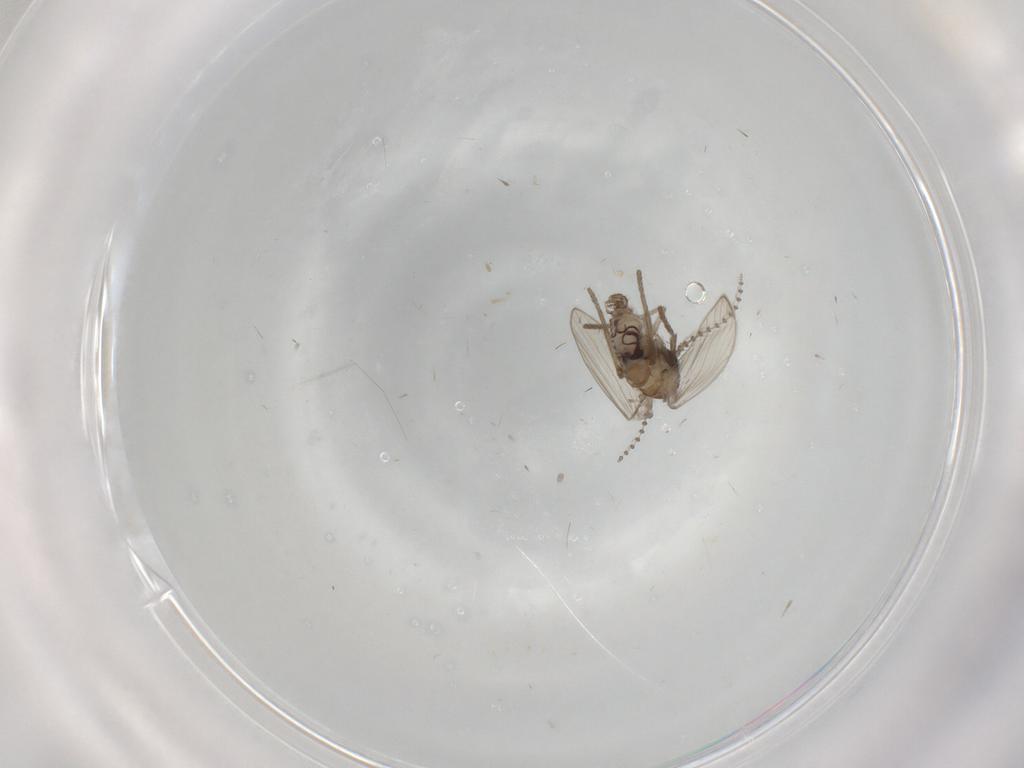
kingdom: Animalia
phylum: Arthropoda
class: Insecta
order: Diptera
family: Psychodidae
